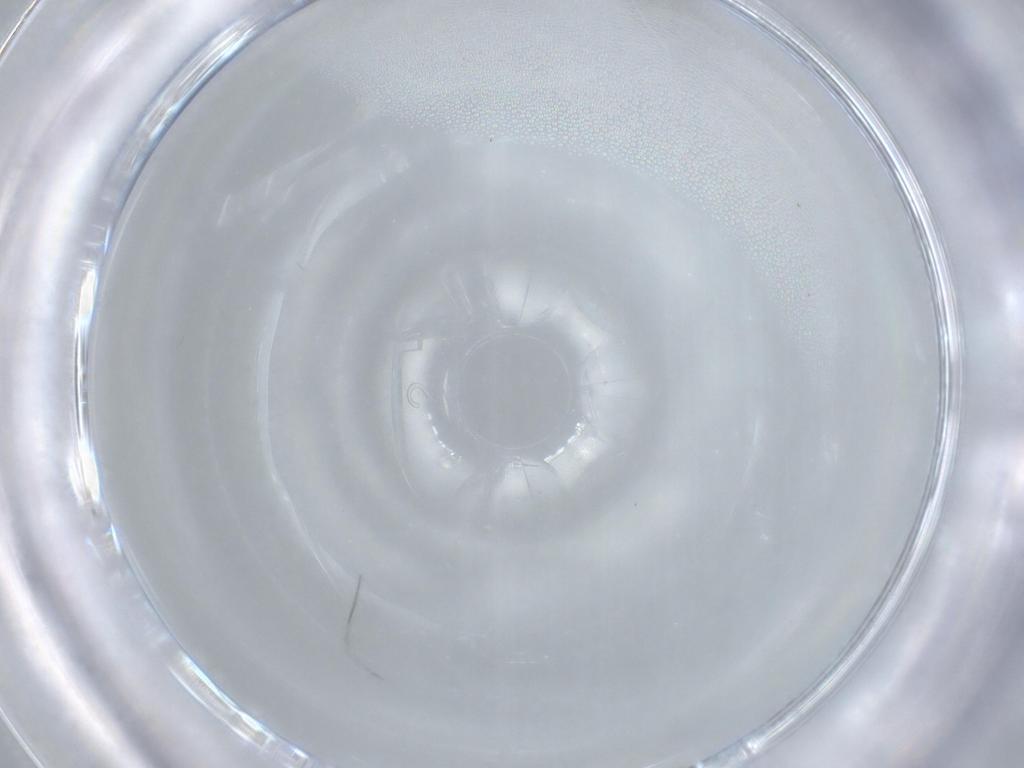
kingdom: Animalia
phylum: Arthropoda
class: Insecta
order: Diptera
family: Sciaridae
